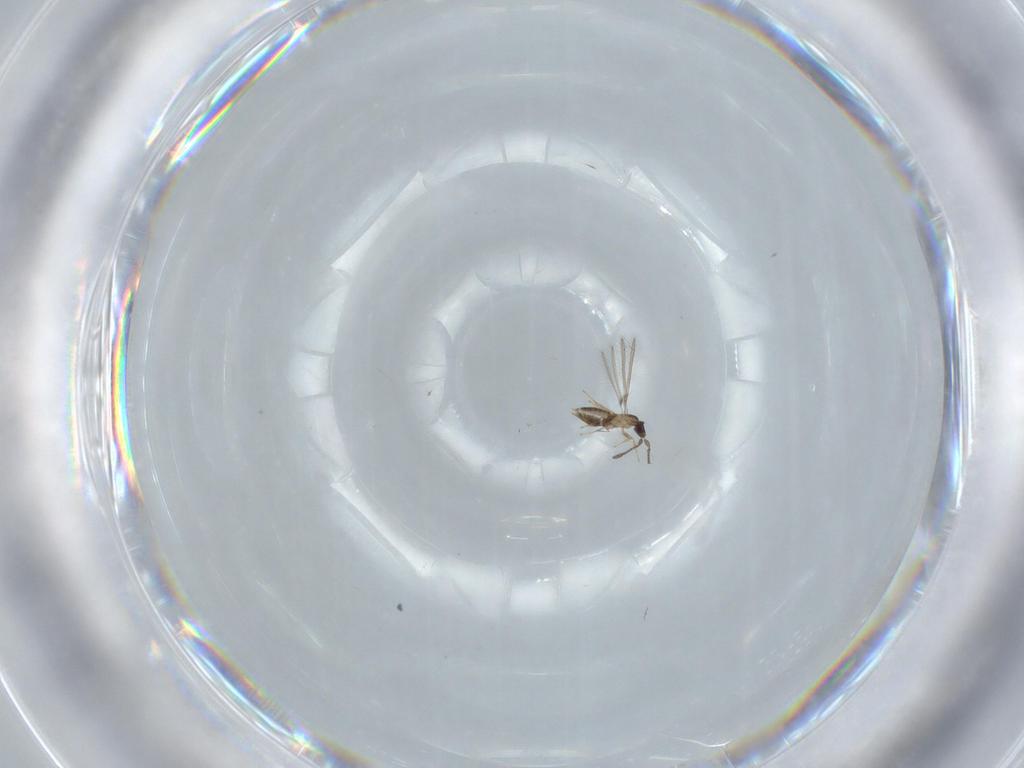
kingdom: Animalia
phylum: Arthropoda
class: Insecta
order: Hymenoptera
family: Mymaridae
